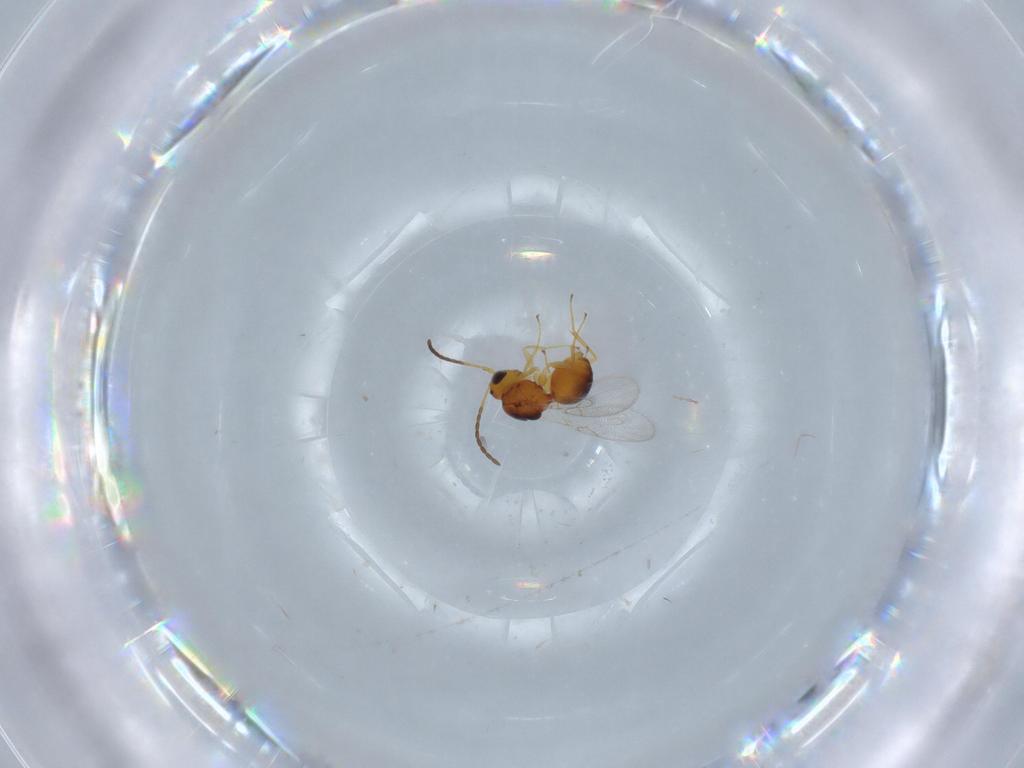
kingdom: Animalia
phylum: Arthropoda
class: Insecta
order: Hymenoptera
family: Figitidae
